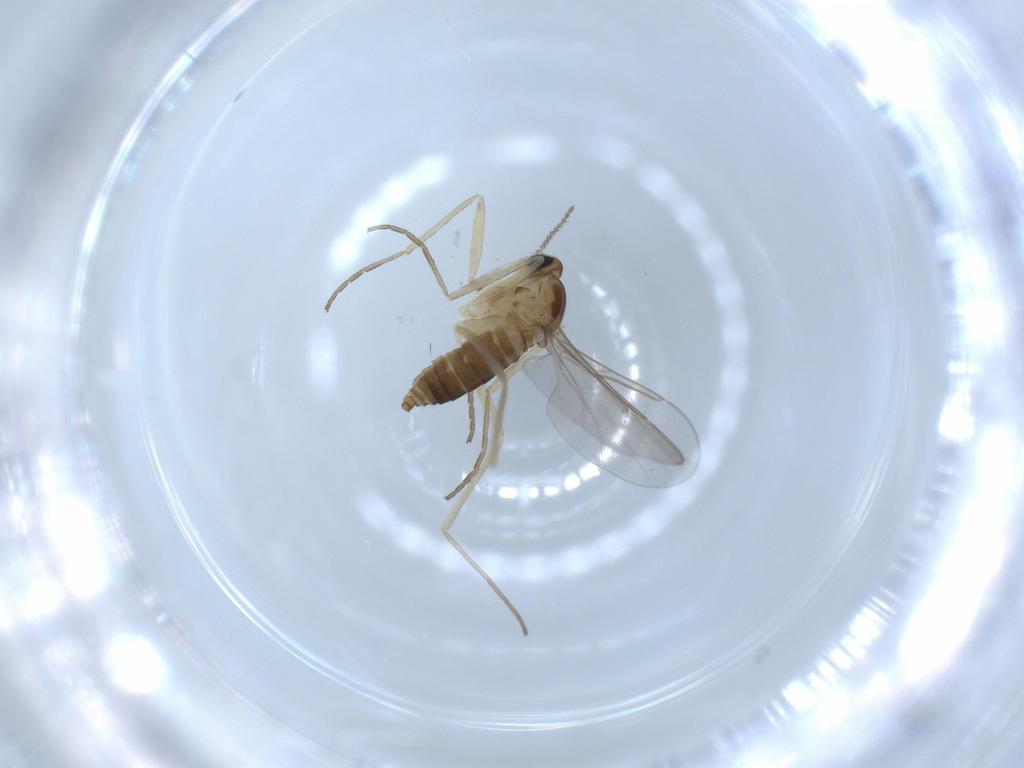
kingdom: Animalia
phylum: Arthropoda
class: Insecta
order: Diptera
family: Cecidomyiidae
